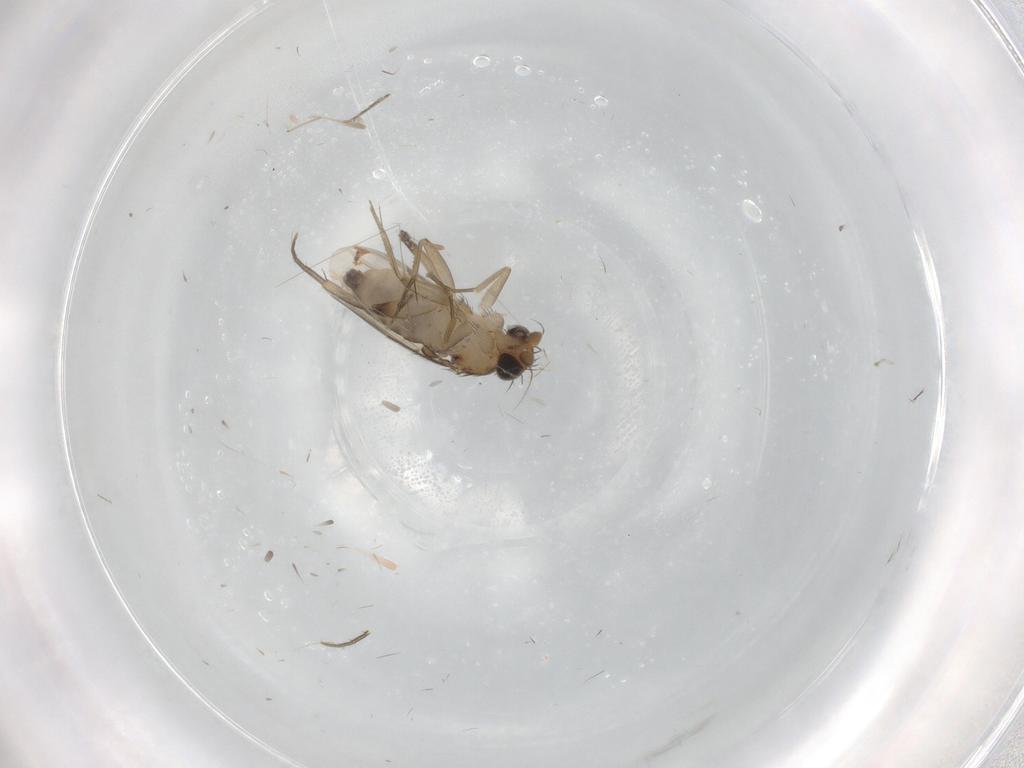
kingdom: Animalia
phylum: Arthropoda
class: Insecta
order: Diptera
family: Phoridae
